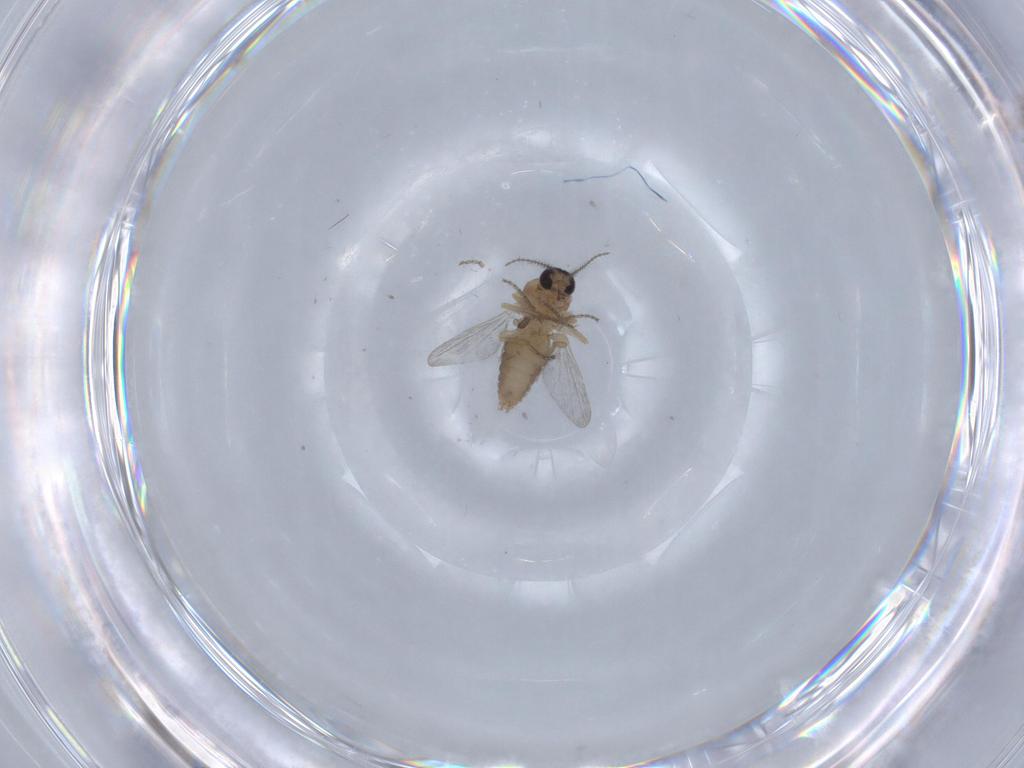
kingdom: Animalia
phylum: Arthropoda
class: Insecta
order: Diptera
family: Ceratopogonidae
